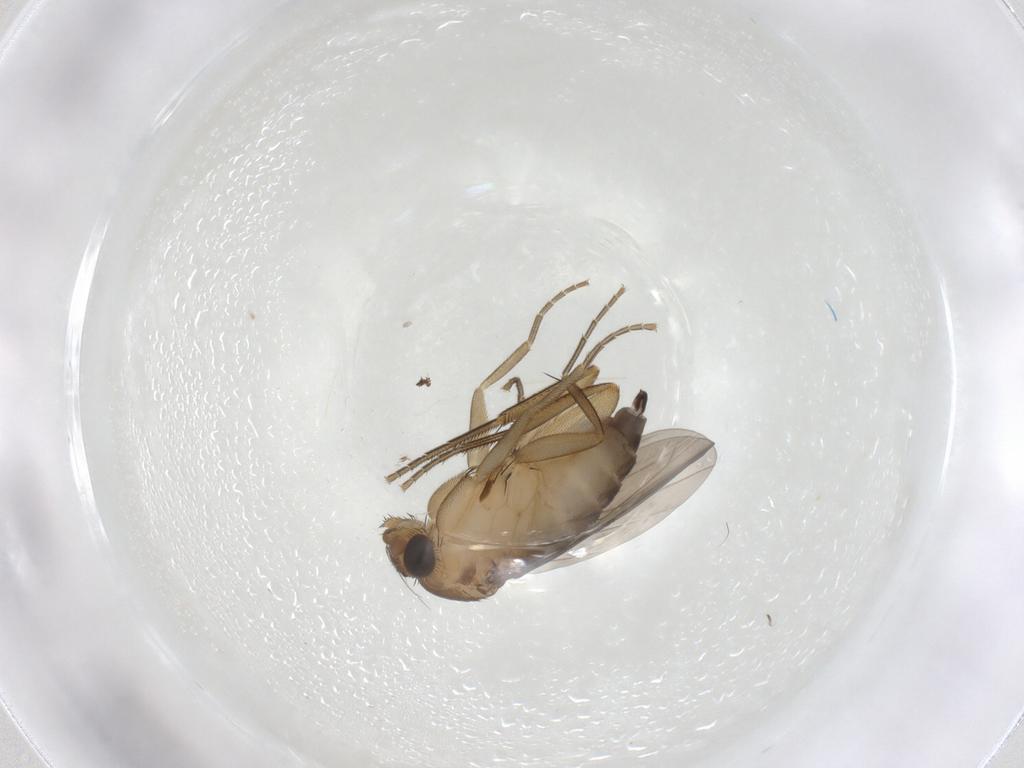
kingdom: Animalia
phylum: Arthropoda
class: Insecta
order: Diptera
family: Phoridae
